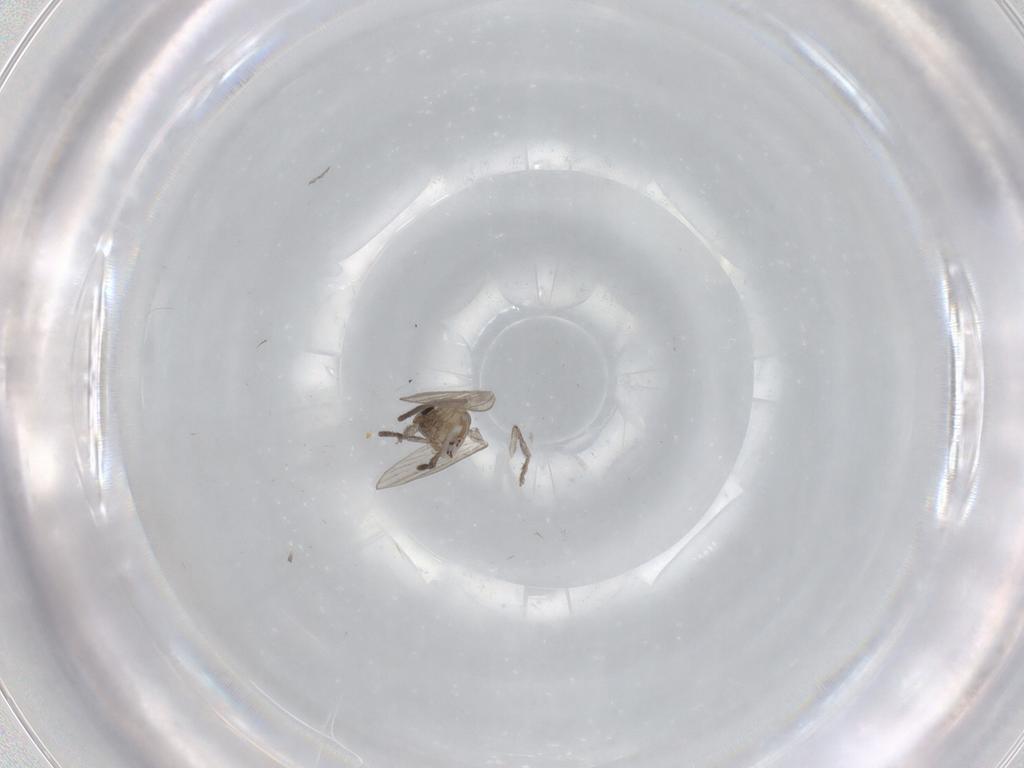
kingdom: Animalia
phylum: Arthropoda
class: Insecta
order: Diptera
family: Psychodidae
